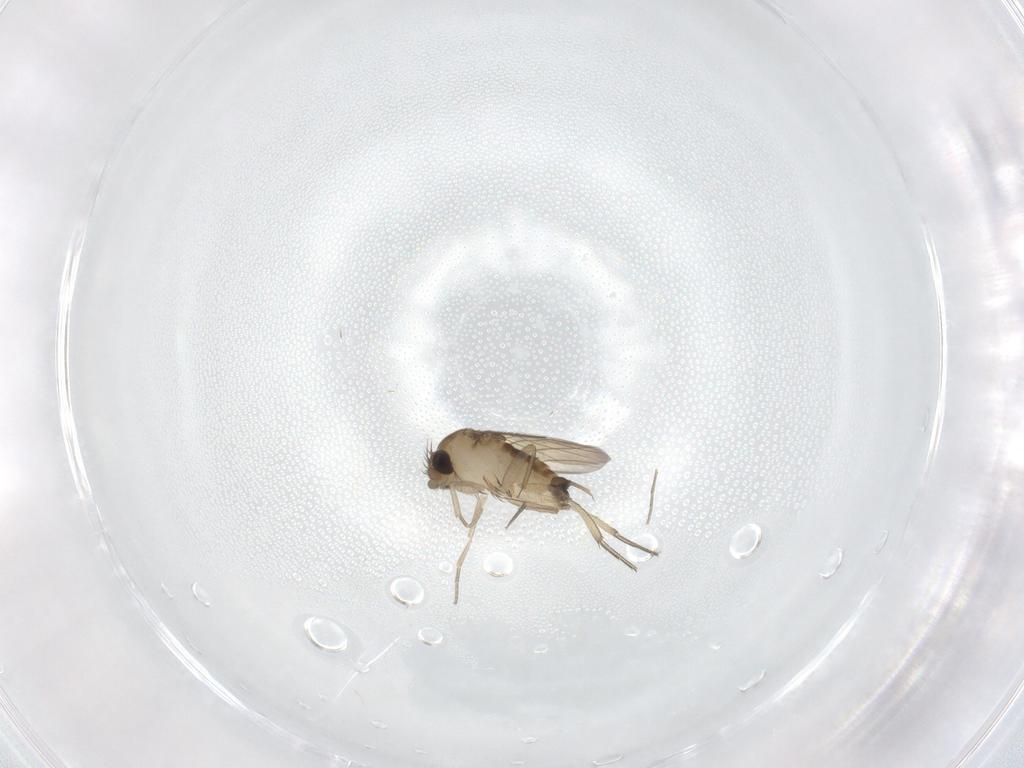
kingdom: Animalia
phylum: Arthropoda
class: Insecta
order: Diptera
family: Phoridae
